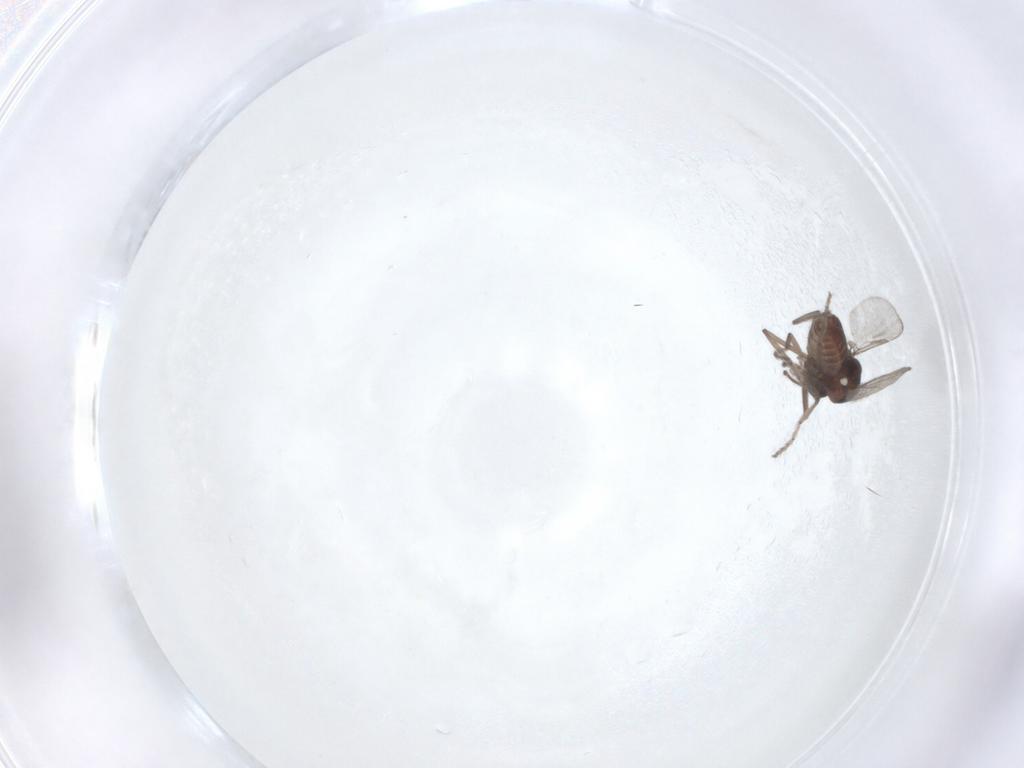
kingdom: Animalia
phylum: Arthropoda
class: Insecta
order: Diptera
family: Ceratopogonidae
